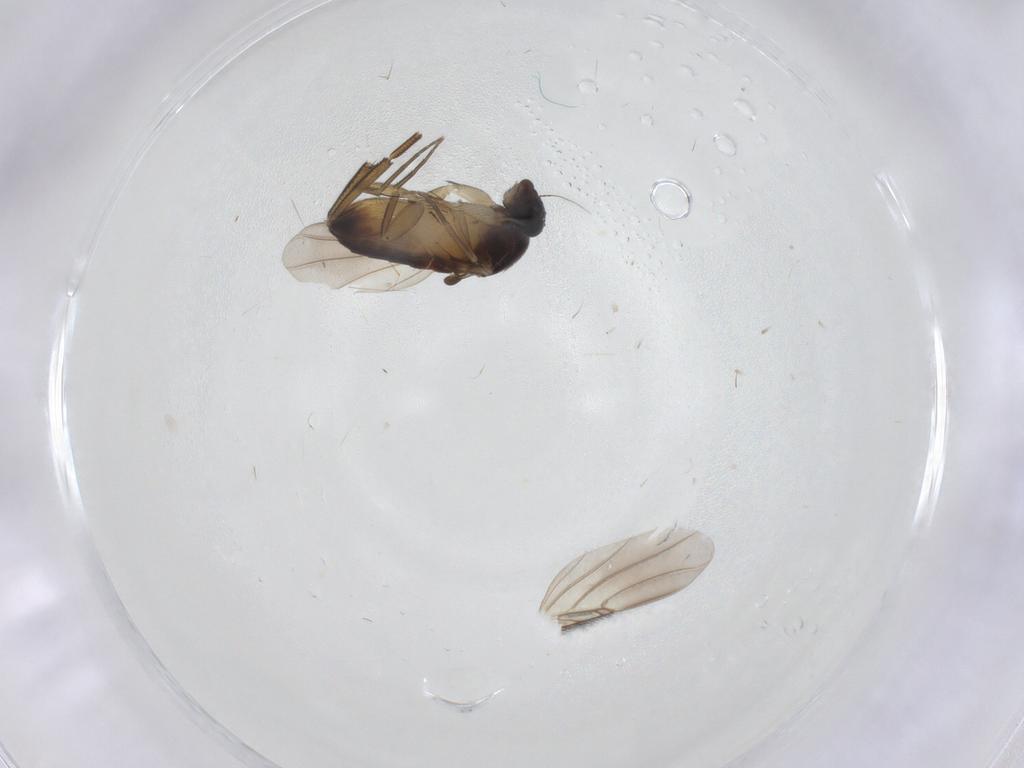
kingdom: Animalia
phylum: Arthropoda
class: Insecta
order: Diptera
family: Phoridae
